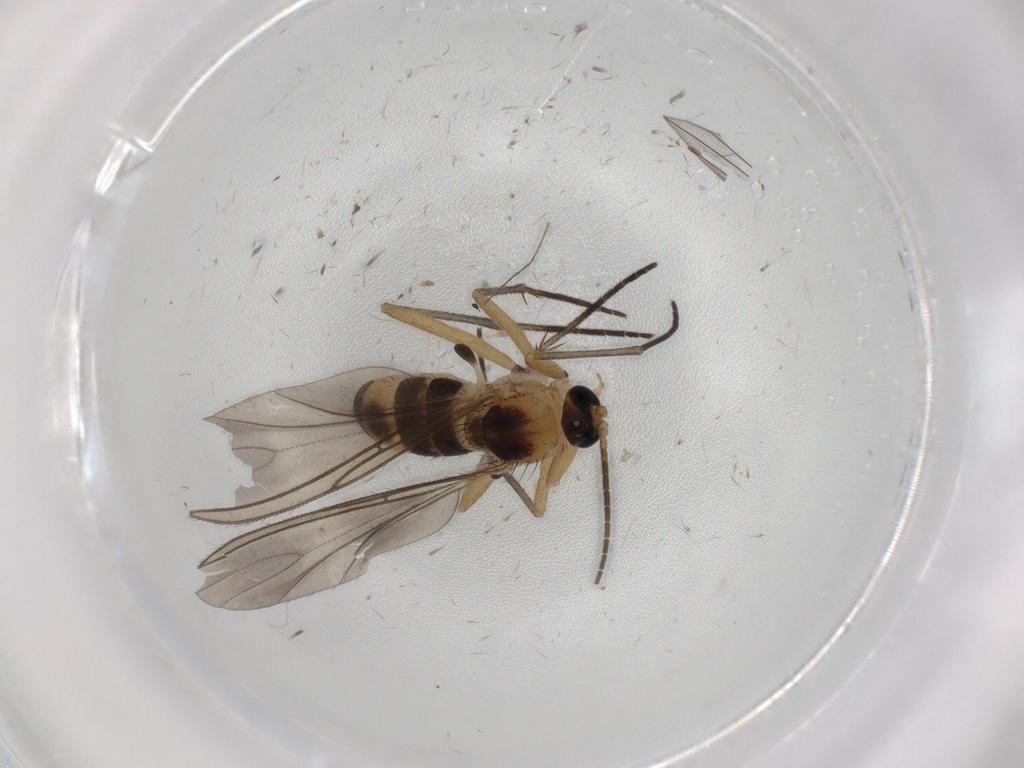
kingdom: Animalia
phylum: Arthropoda
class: Insecta
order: Diptera
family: Sciaridae
